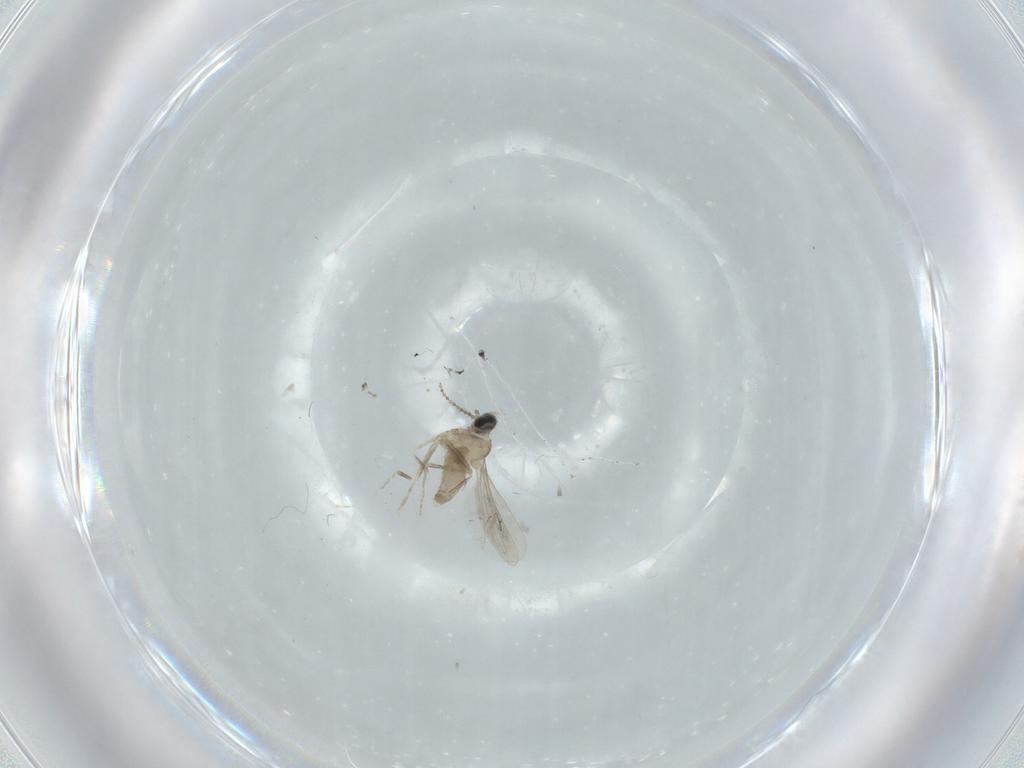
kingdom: Animalia
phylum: Arthropoda
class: Insecta
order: Diptera
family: Cecidomyiidae
